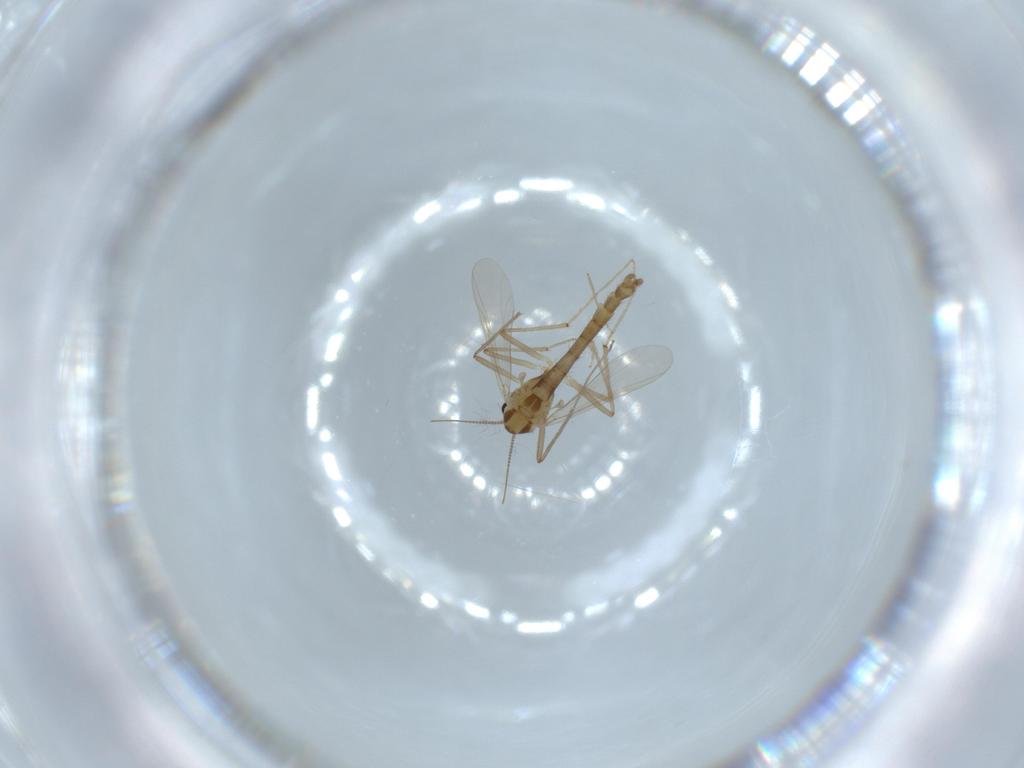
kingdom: Animalia
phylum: Arthropoda
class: Insecta
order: Diptera
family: Chironomidae
